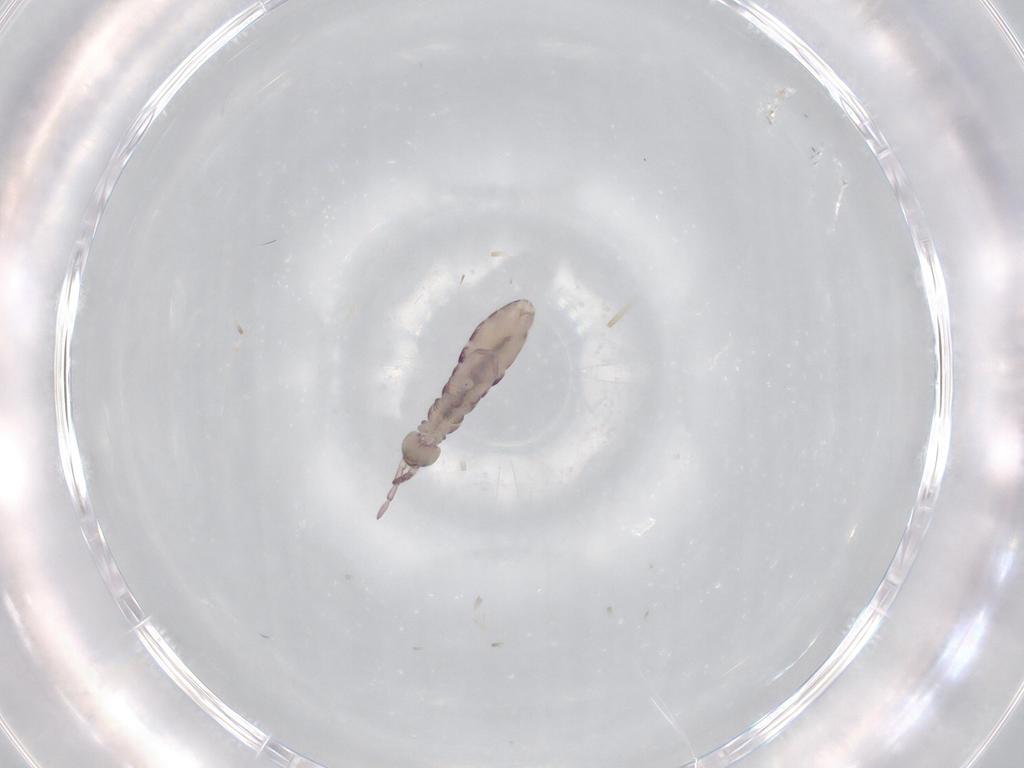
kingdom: Animalia
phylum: Arthropoda
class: Collembola
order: Entomobryomorpha
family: Isotomidae
